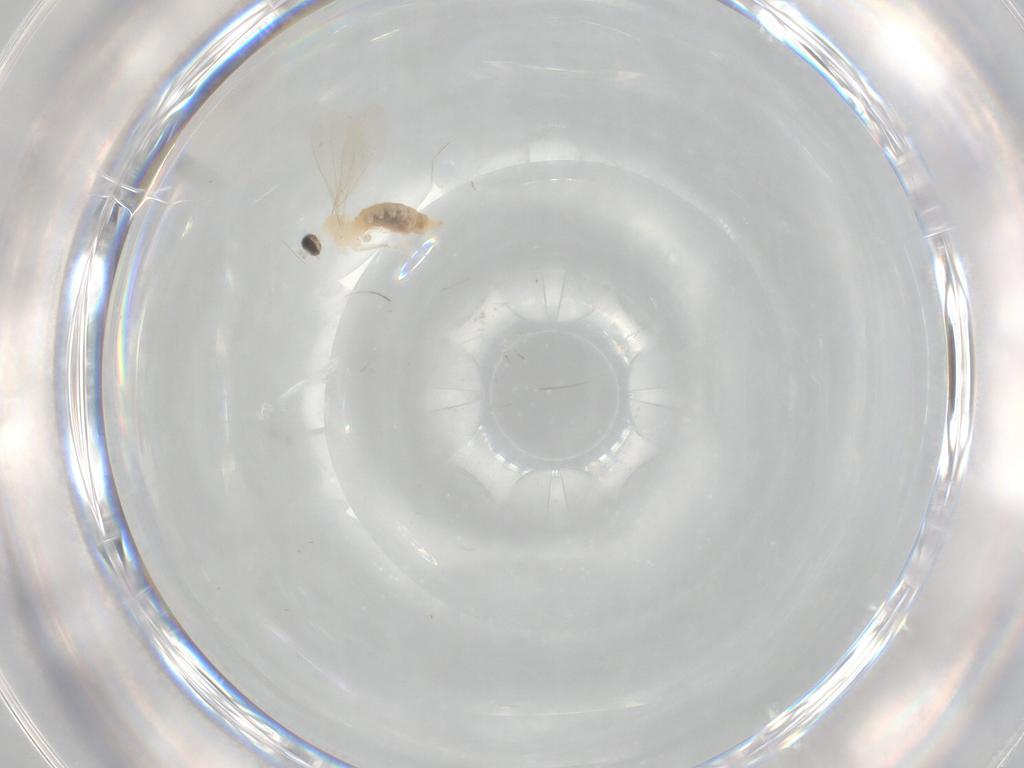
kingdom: Animalia
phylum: Arthropoda
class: Insecta
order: Diptera
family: Cecidomyiidae
